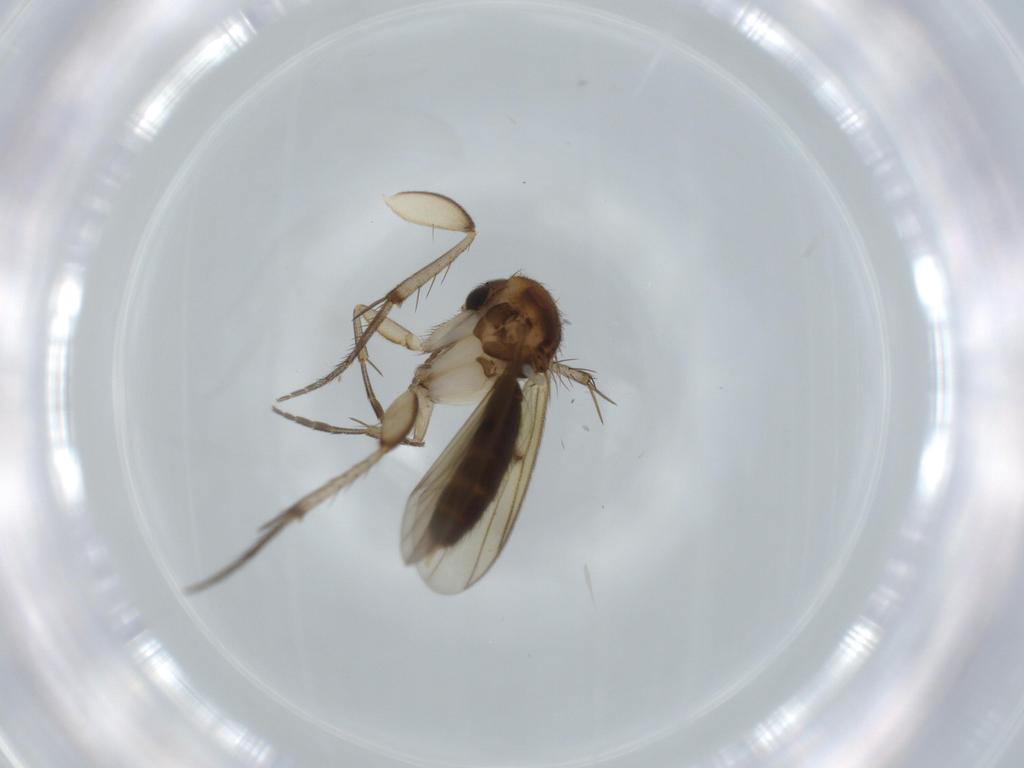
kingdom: Animalia
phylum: Arthropoda
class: Insecta
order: Diptera
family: Mycetophilidae
